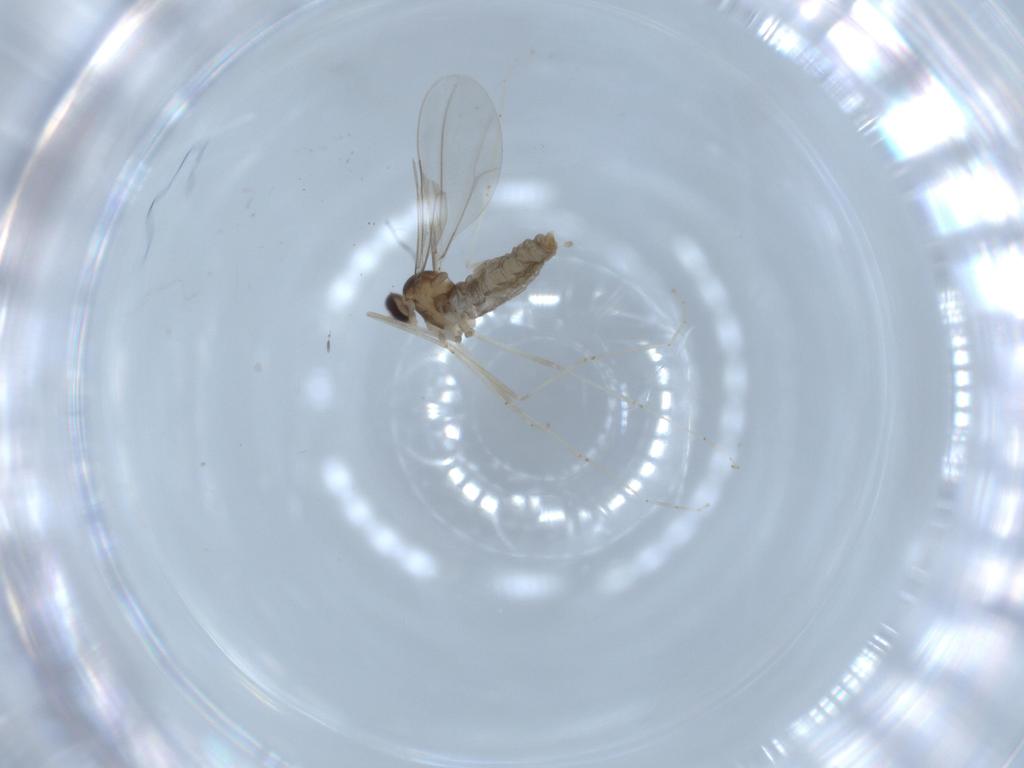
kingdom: Animalia
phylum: Arthropoda
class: Insecta
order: Diptera
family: Cecidomyiidae
